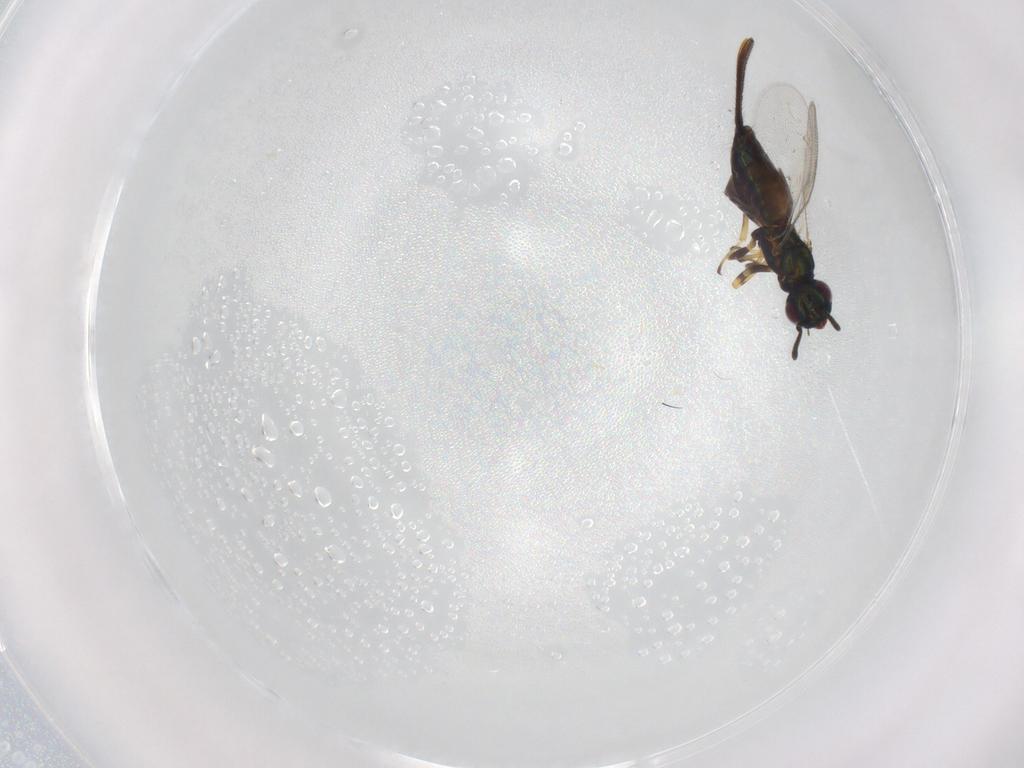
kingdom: Animalia
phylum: Arthropoda
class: Insecta
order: Hymenoptera
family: Eupelmidae
